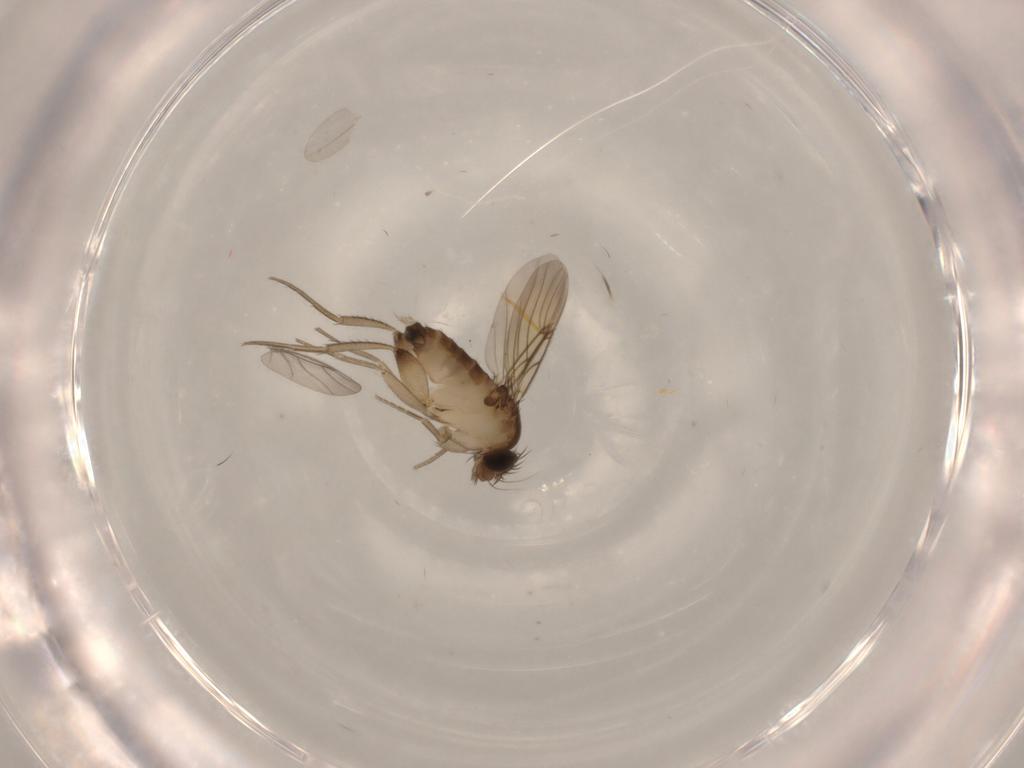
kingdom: Animalia
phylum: Arthropoda
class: Insecta
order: Diptera
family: Phoridae
